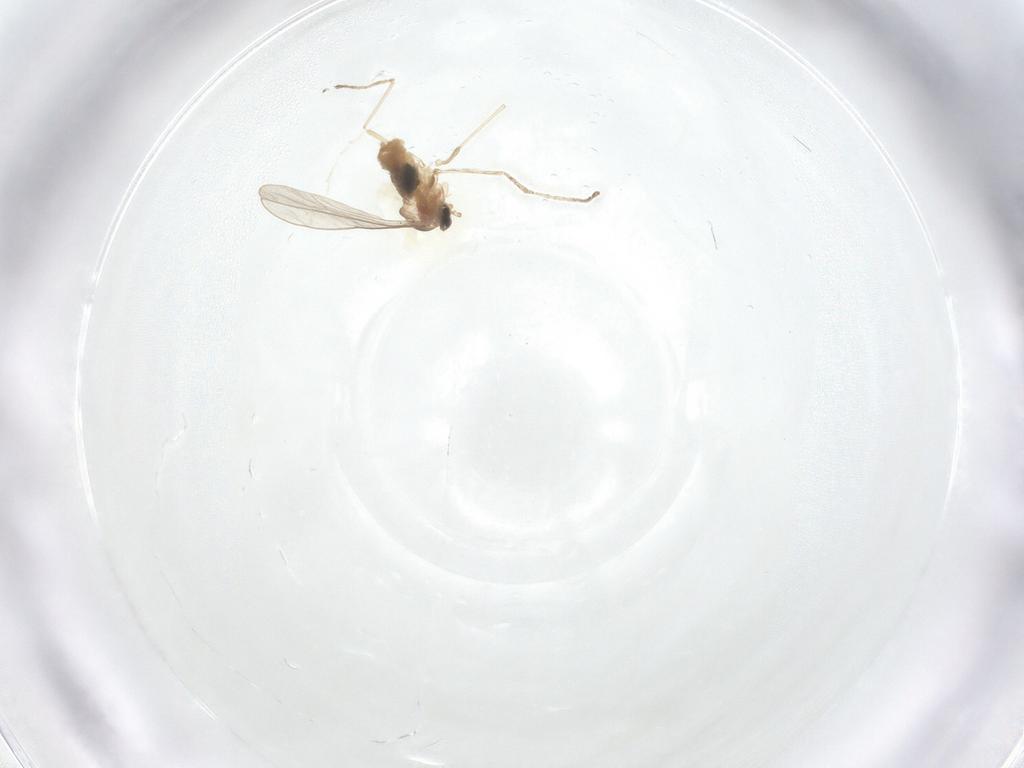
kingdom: Animalia
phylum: Arthropoda
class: Insecta
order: Diptera
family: Cecidomyiidae
